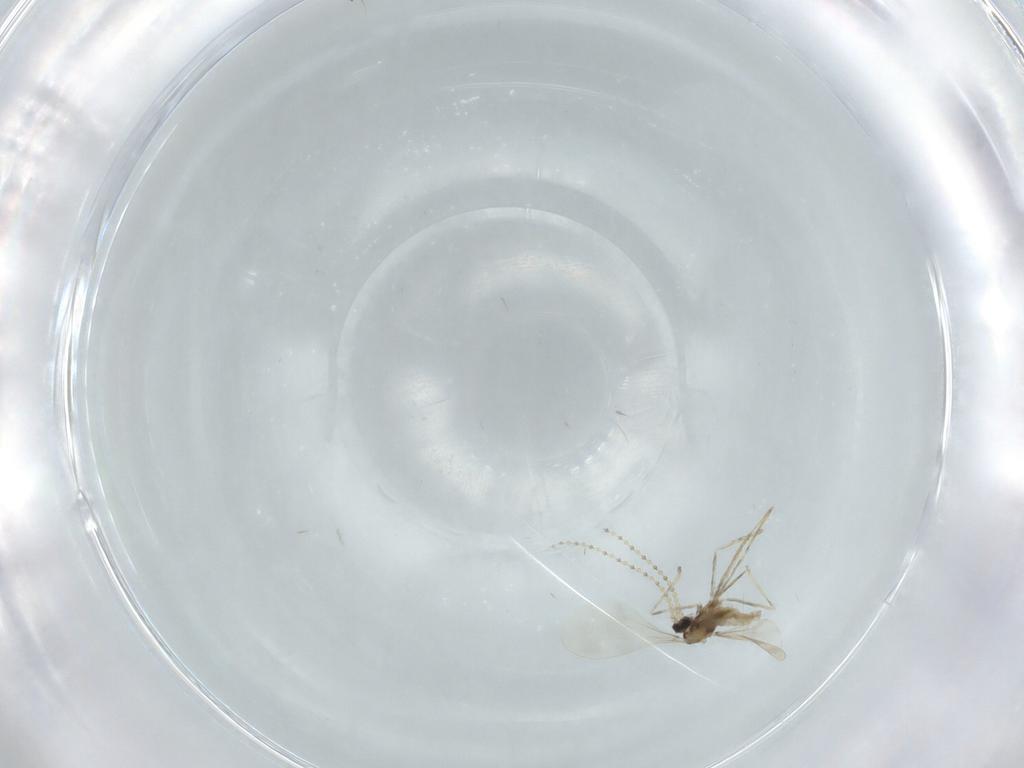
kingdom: Animalia
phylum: Arthropoda
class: Insecta
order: Diptera
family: Cecidomyiidae
